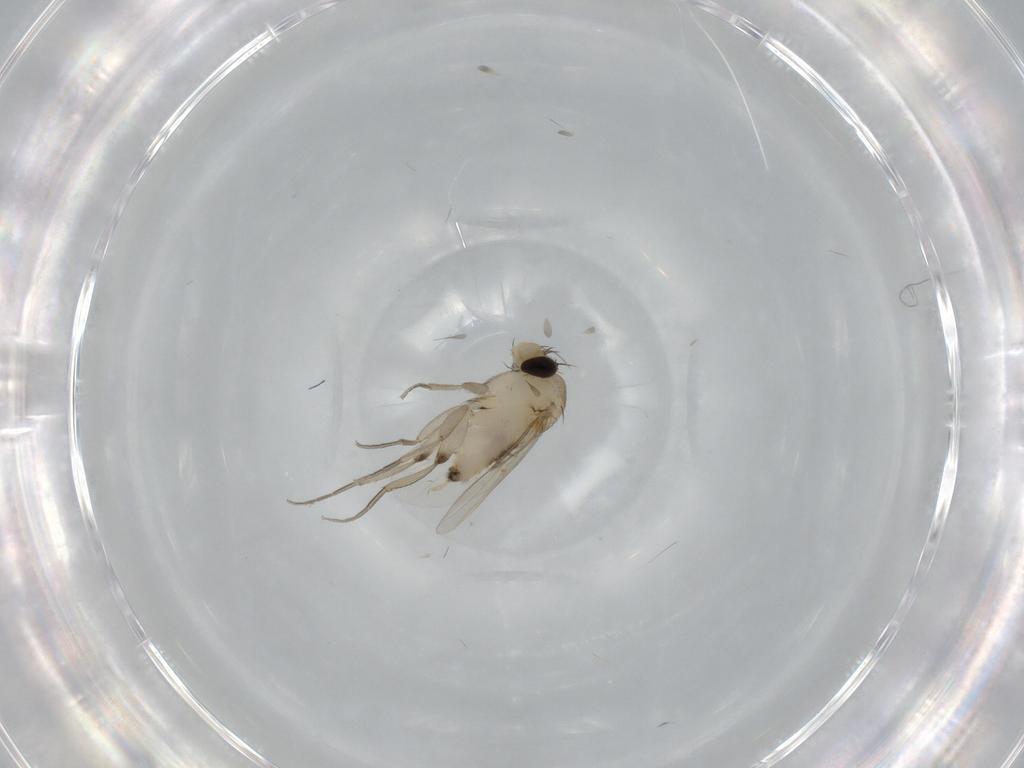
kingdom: Animalia
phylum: Arthropoda
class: Insecta
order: Diptera
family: Phoridae
